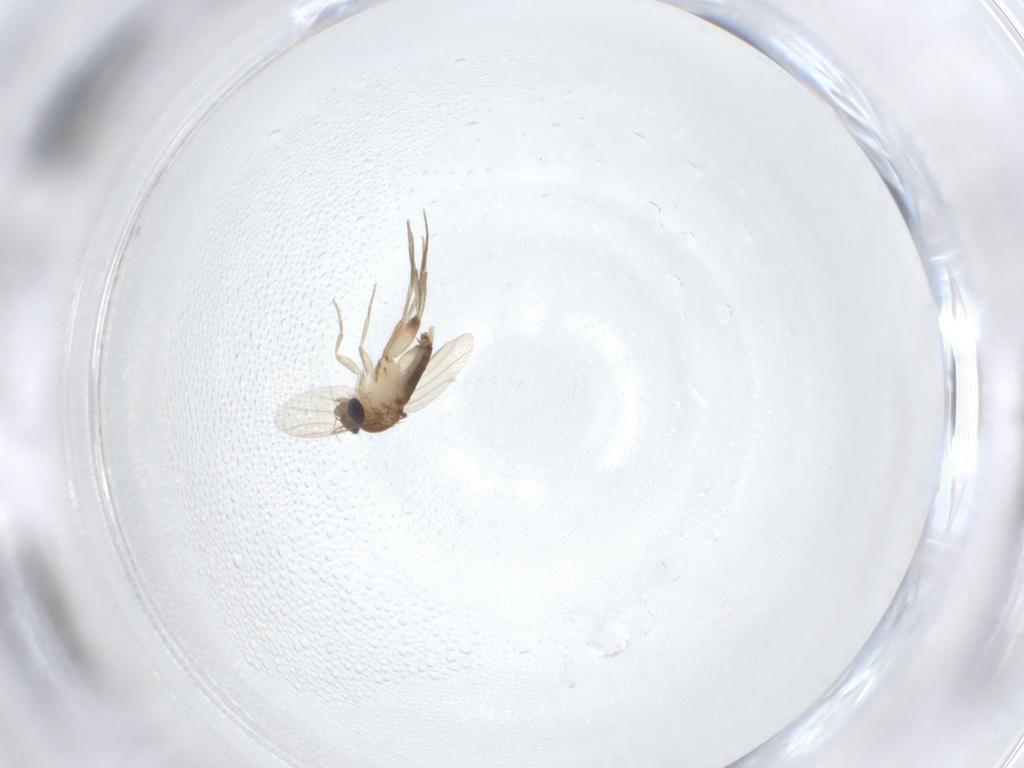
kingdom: Animalia
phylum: Arthropoda
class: Insecta
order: Diptera
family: Phoridae
